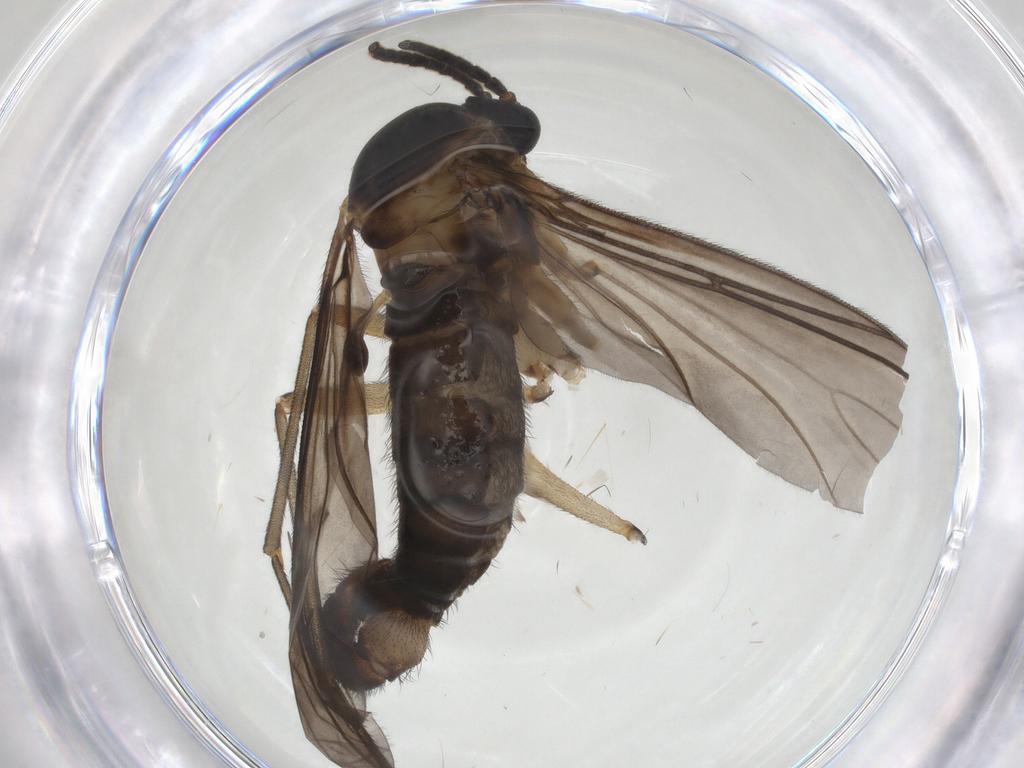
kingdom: Animalia
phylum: Arthropoda
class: Insecta
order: Diptera
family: Sciaridae
